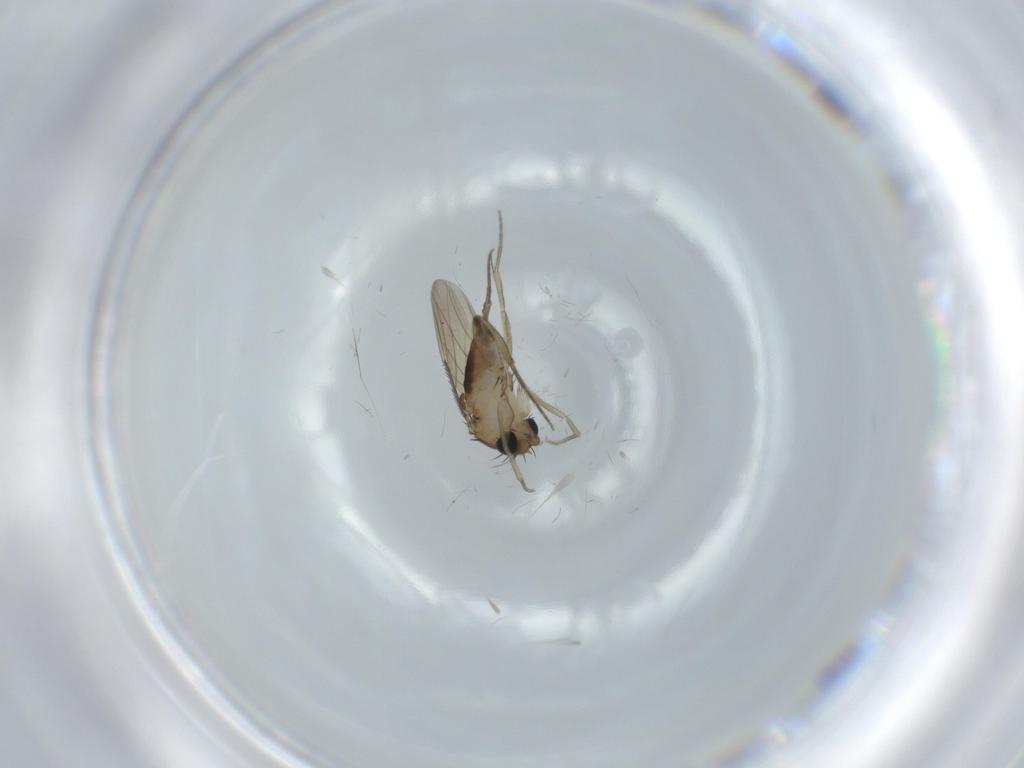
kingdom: Animalia
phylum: Arthropoda
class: Insecta
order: Diptera
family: Phoridae
